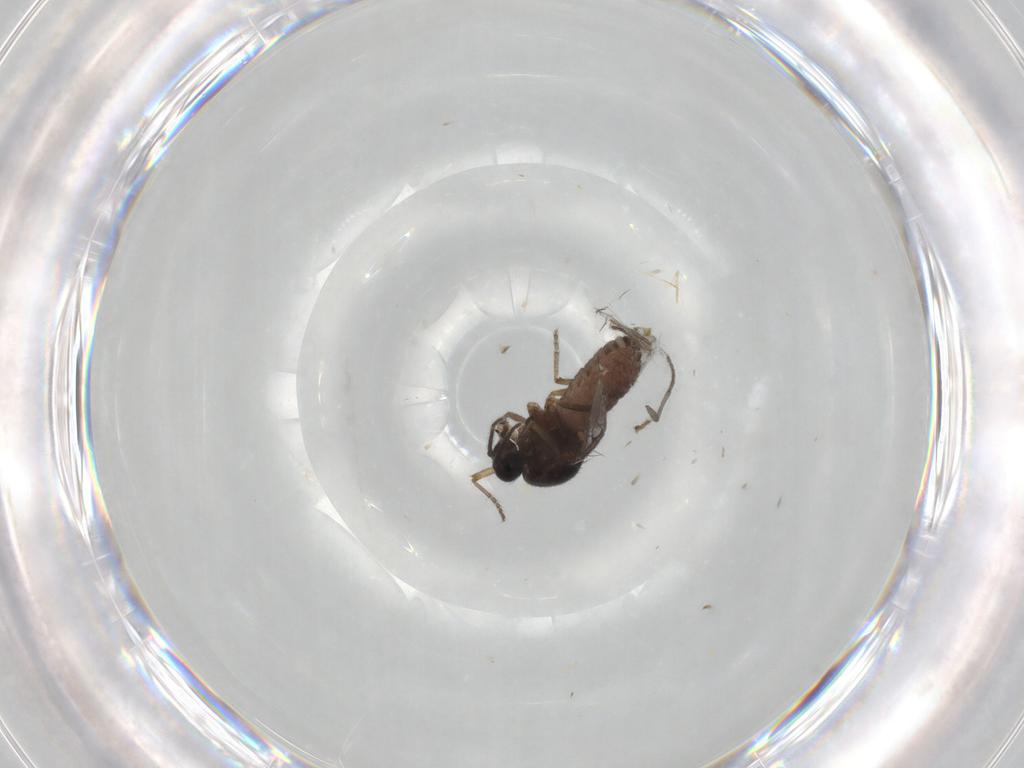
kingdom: Animalia
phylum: Arthropoda
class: Insecta
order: Diptera
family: Ceratopogonidae
